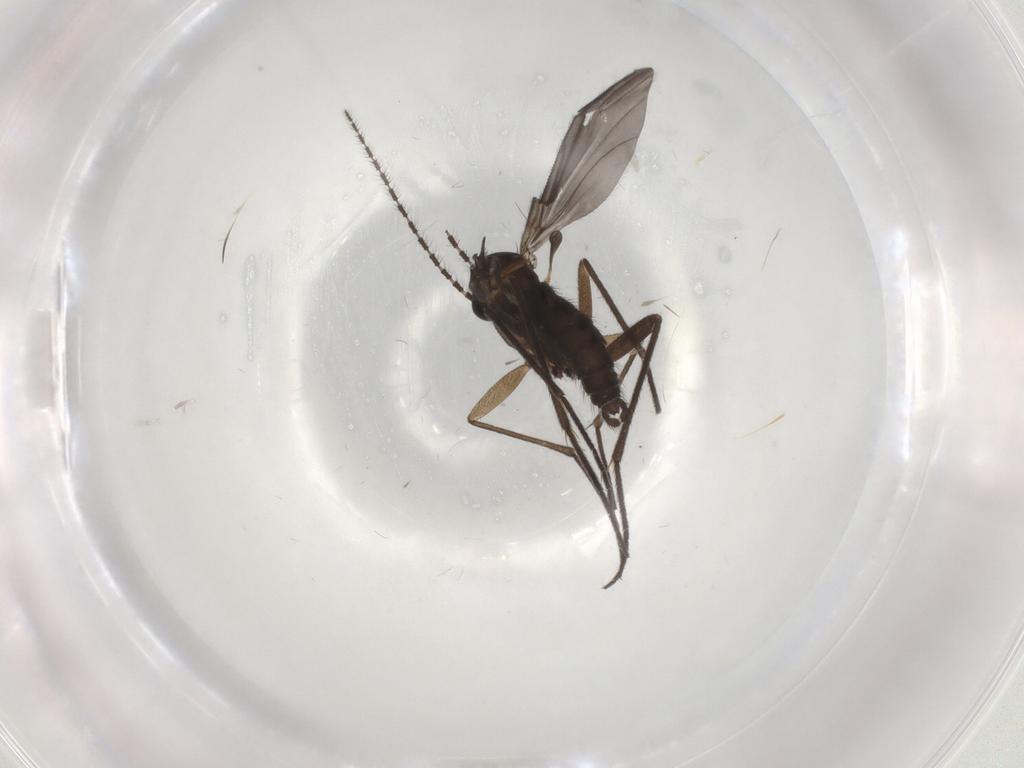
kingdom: Animalia
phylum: Arthropoda
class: Insecta
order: Diptera
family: Sciaridae
